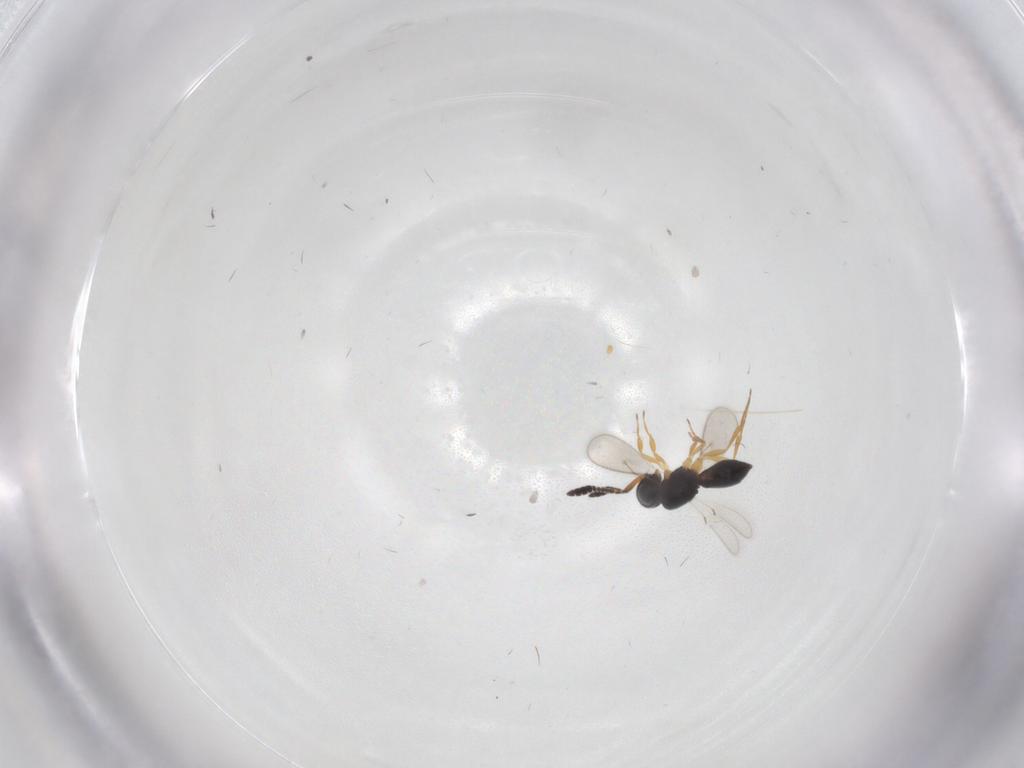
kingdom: Animalia
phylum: Arthropoda
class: Insecta
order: Hymenoptera
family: Scelionidae
